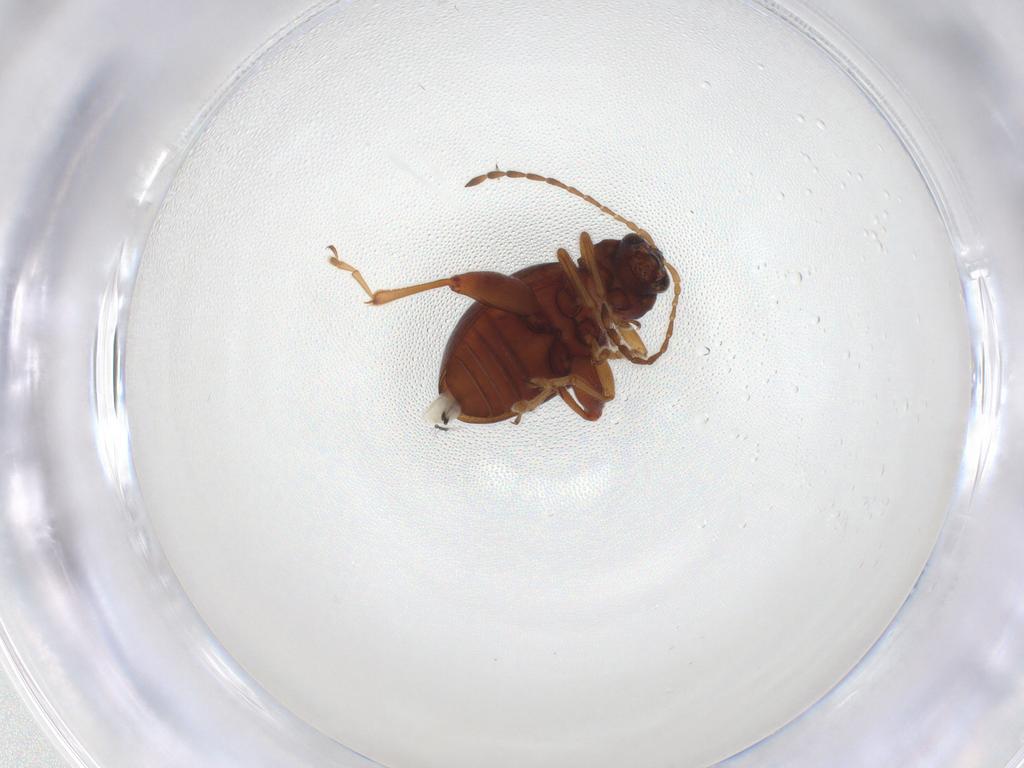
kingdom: Animalia
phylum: Arthropoda
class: Insecta
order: Coleoptera
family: Chrysomelidae
